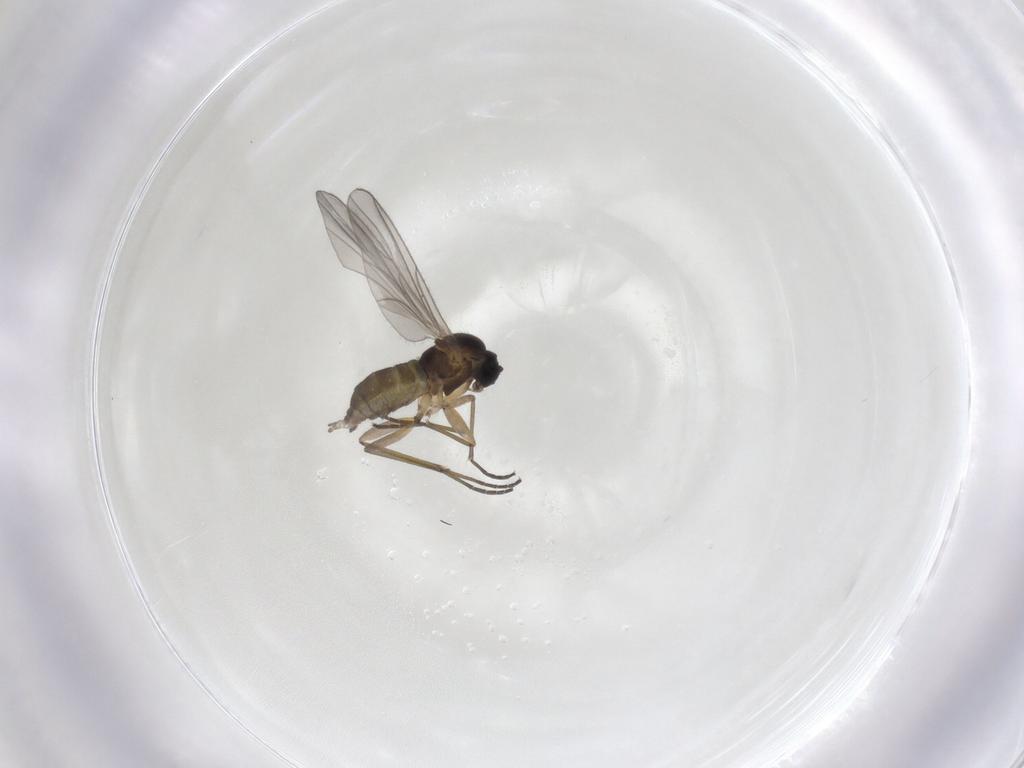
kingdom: Animalia
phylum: Arthropoda
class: Insecta
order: Diptera
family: Sciaridae
